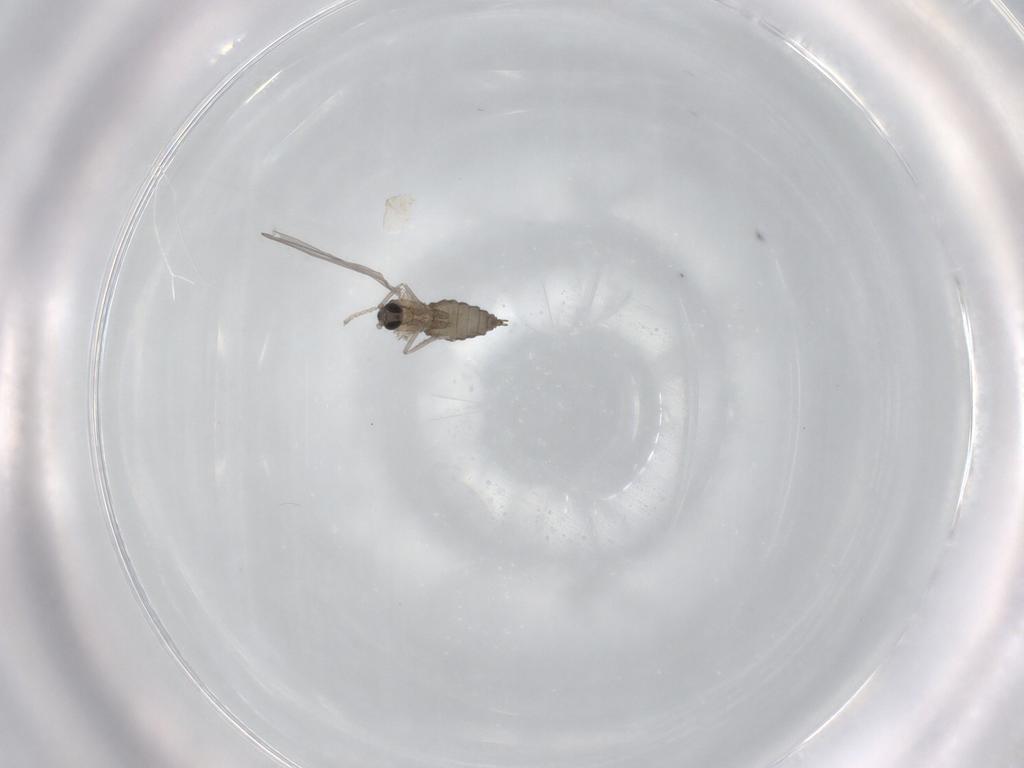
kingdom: Animalia
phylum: Arthropoda
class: Insecta
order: Diptera
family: Cecidomyiidae
